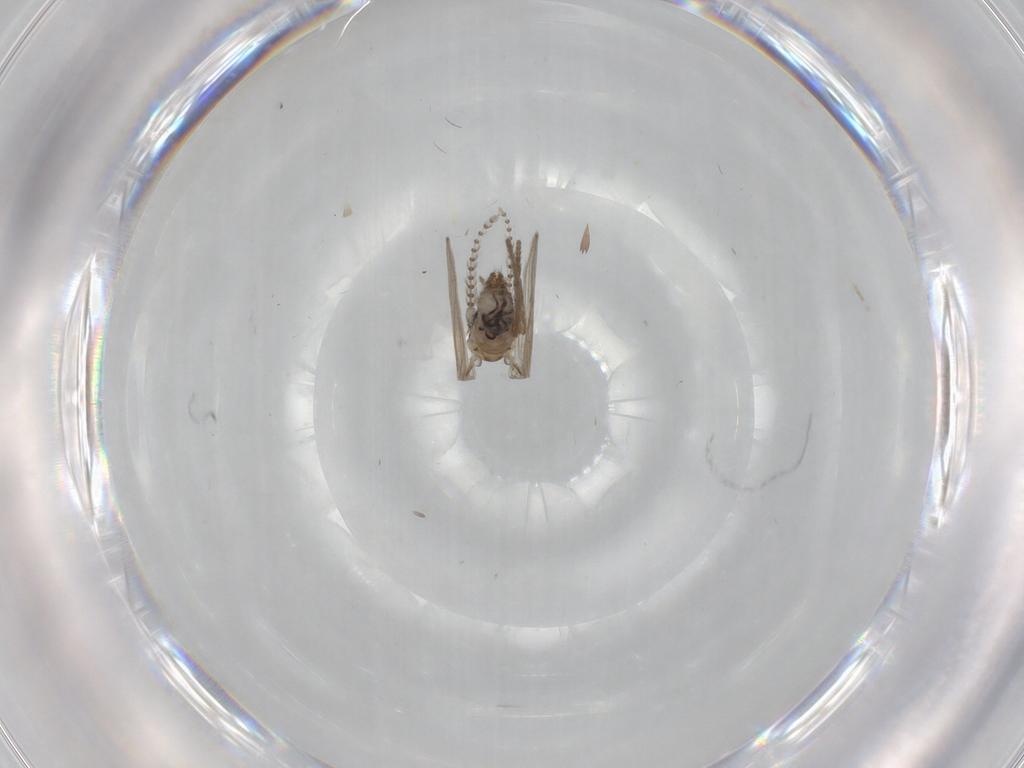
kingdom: Animalia
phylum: Arthropoda
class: Insecta
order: Diptera
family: Psychodidae
